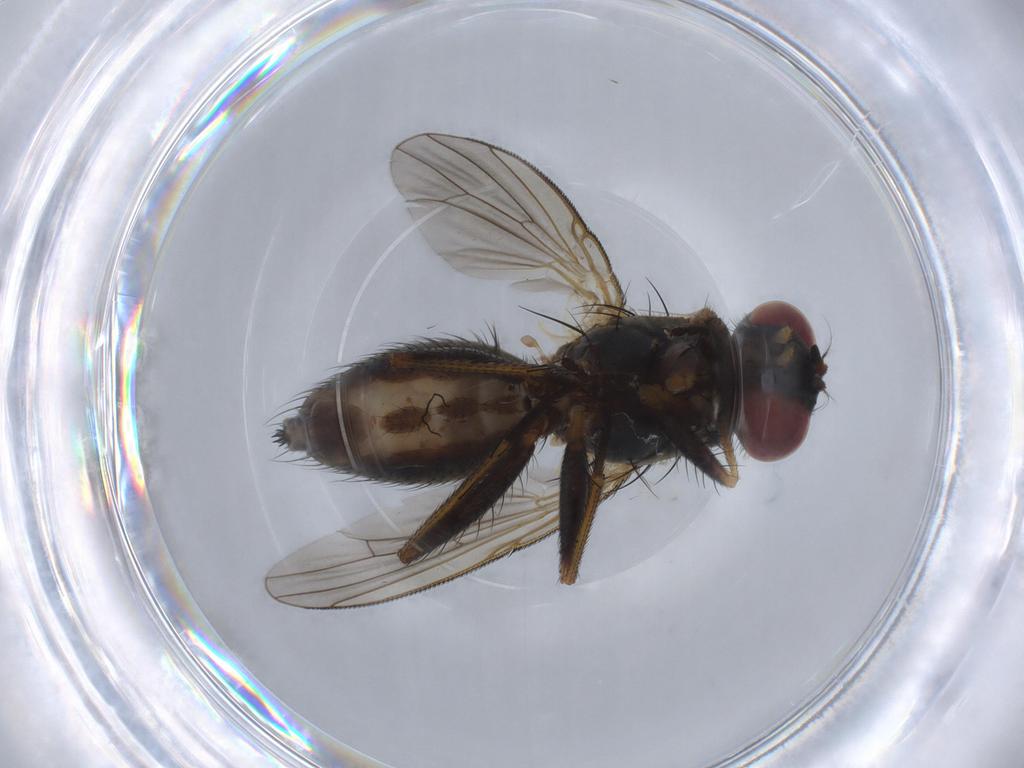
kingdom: Animalia
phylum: Arthropoda
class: Insecta
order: Diptera
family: Muscidae
